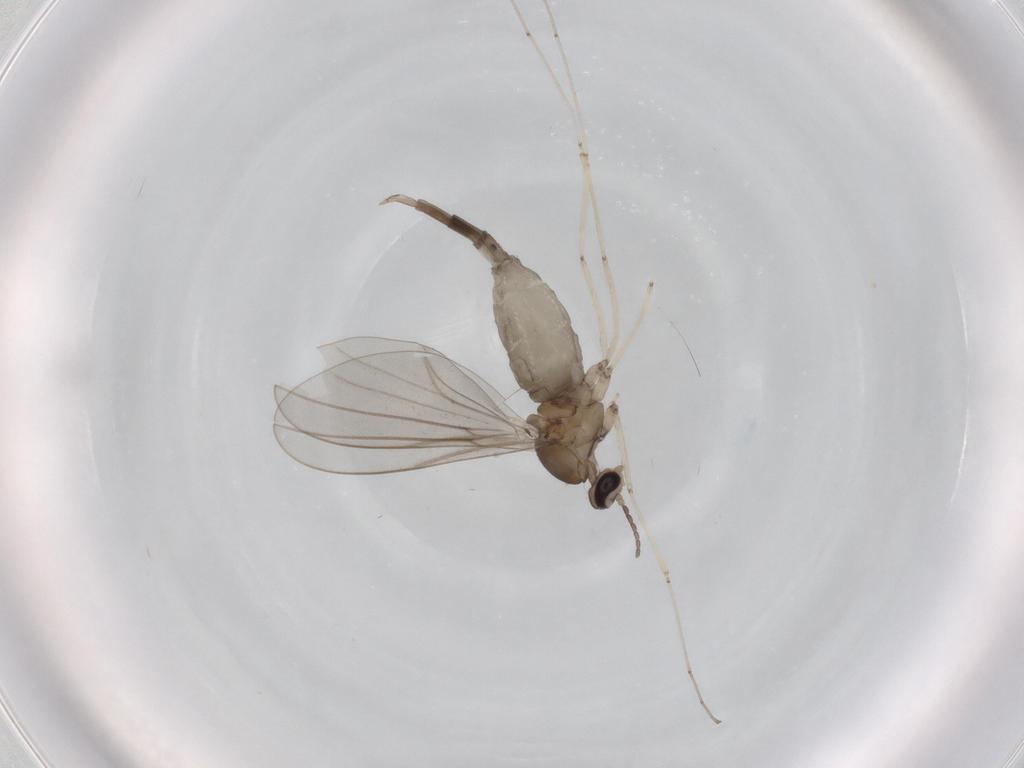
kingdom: Animalia
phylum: Arthropoda
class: Insecta
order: Diptera
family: Cecidomyiidae
